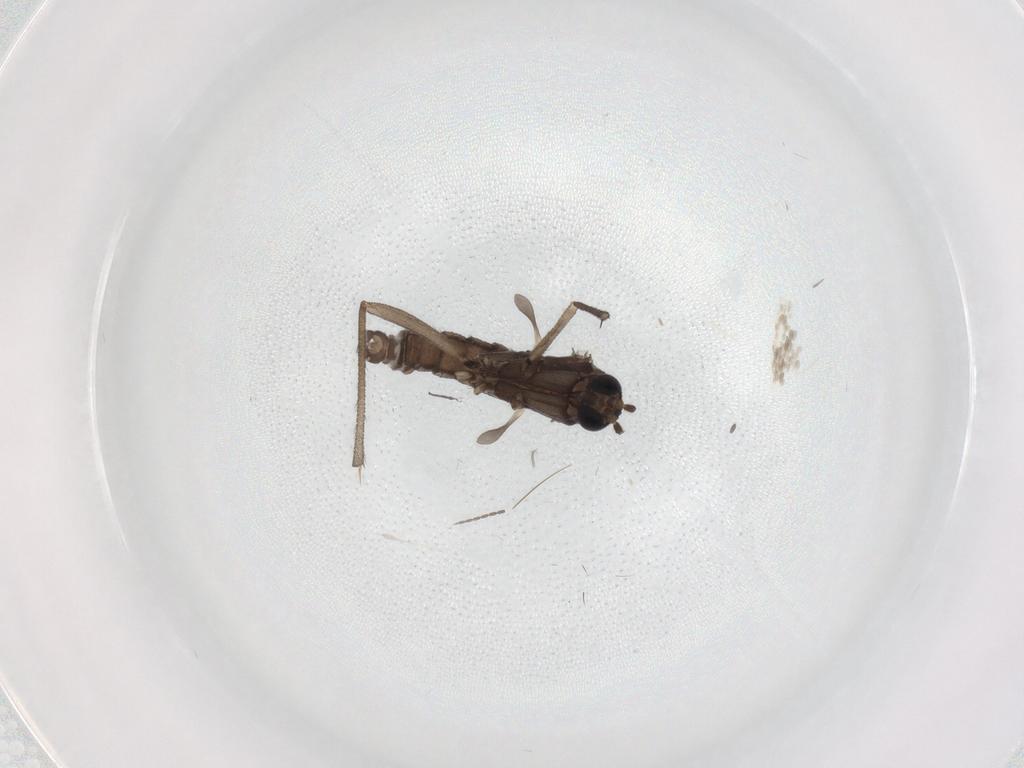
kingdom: Animalia
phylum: Arthropoda
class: Insecta
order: Diptera
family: Sciaridae
